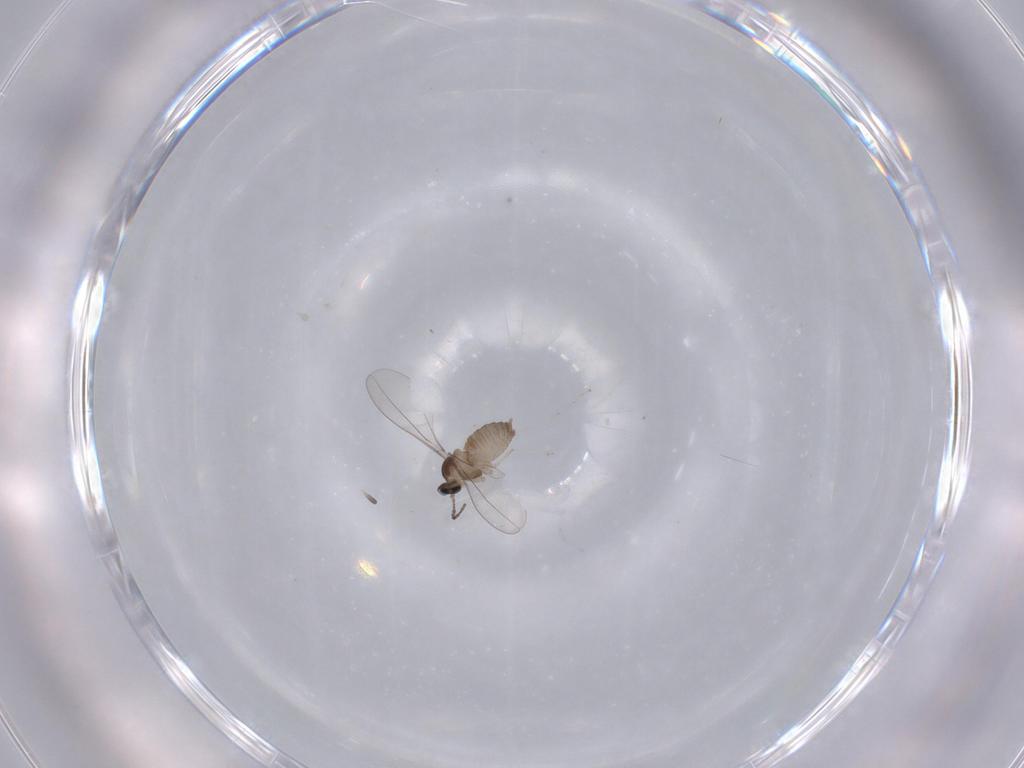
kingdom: Animalia
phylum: Arthropoda
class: Insecta
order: Diptera
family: Cecidomyiidae
